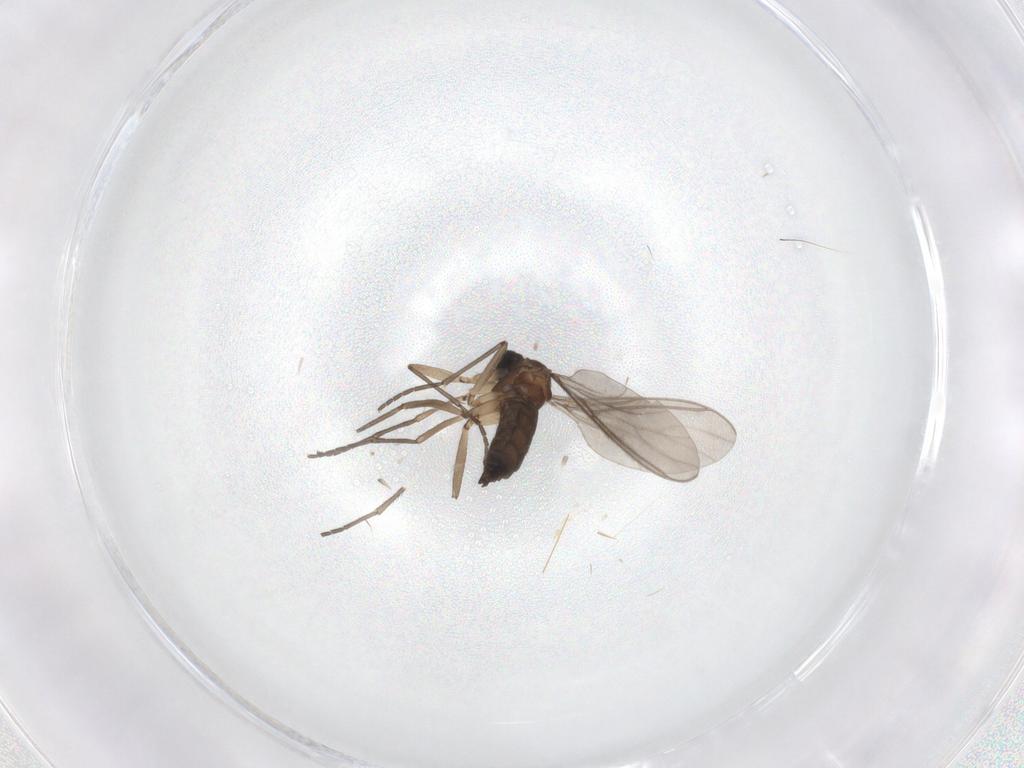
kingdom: Animalia
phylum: Arthropoda
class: Insecta
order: Diptera
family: Sciaridae
